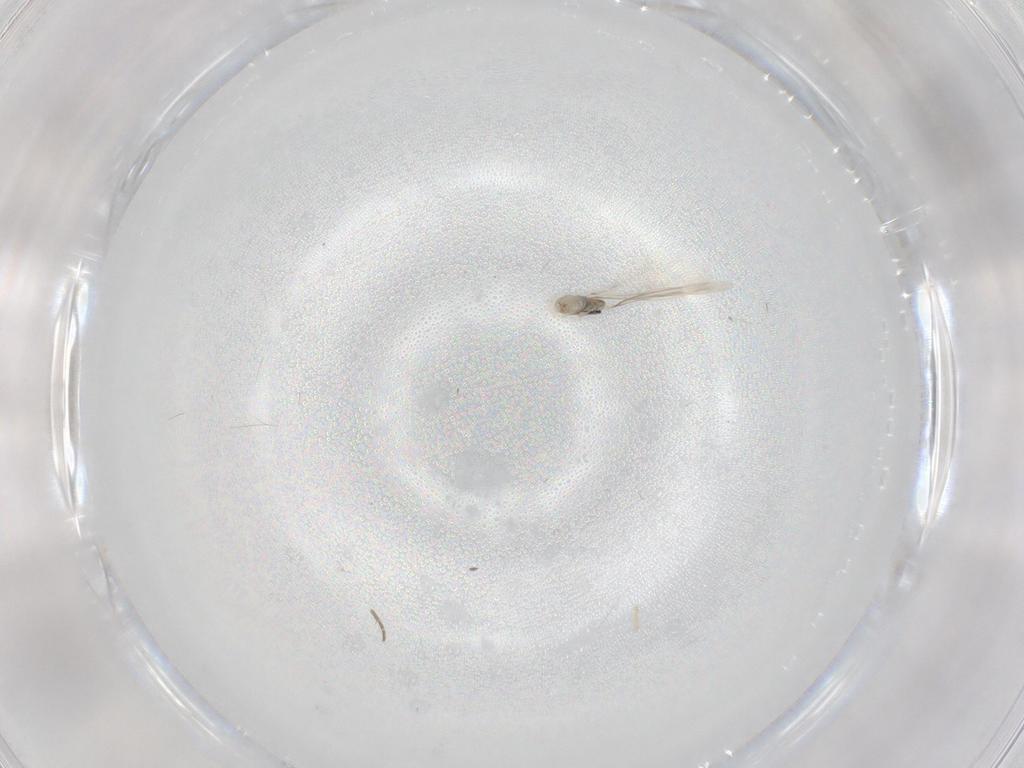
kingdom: Animalia
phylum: Arthropoda
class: Insecta
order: Diptera
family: Cecidomyiidae
